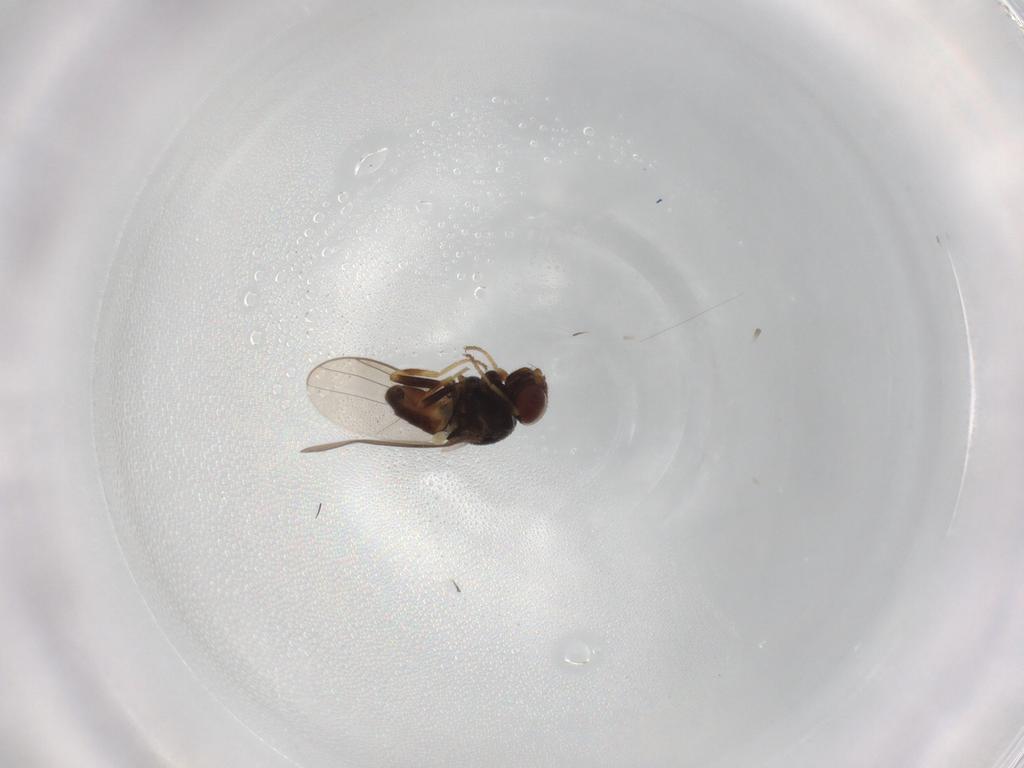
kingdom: Animalia
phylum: Arthropoda
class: Insecta
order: Diptera
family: Chloropidae
